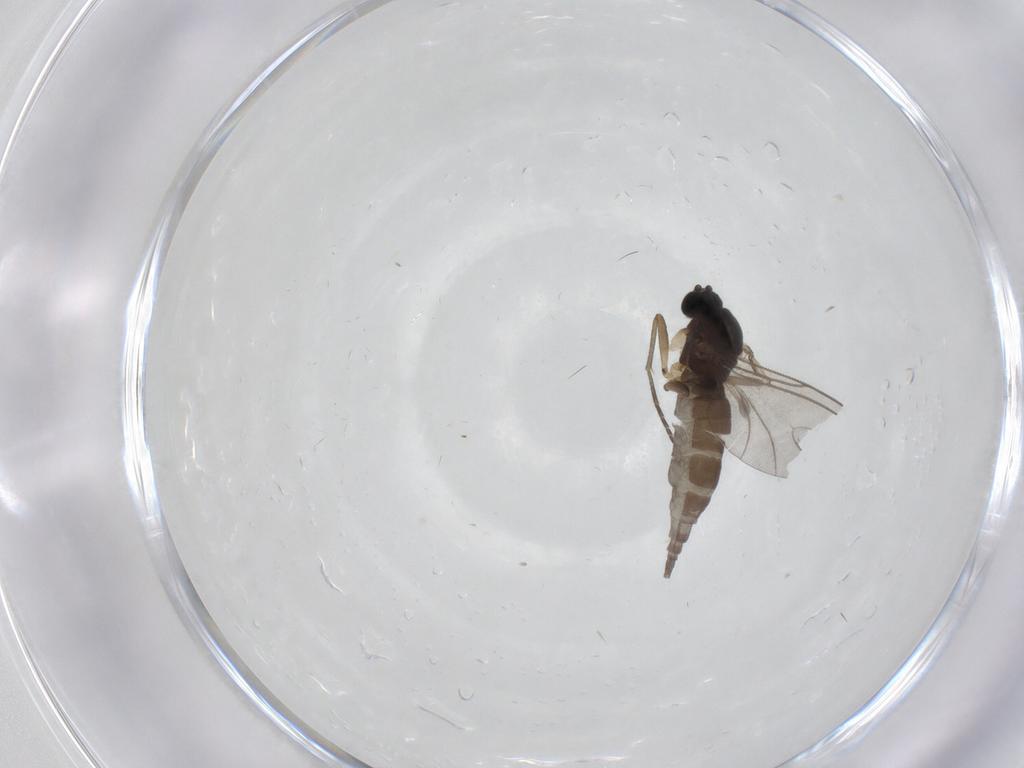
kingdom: Animalia
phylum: Arthropoda
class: Insecta
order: Diptera
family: Sciaridae
